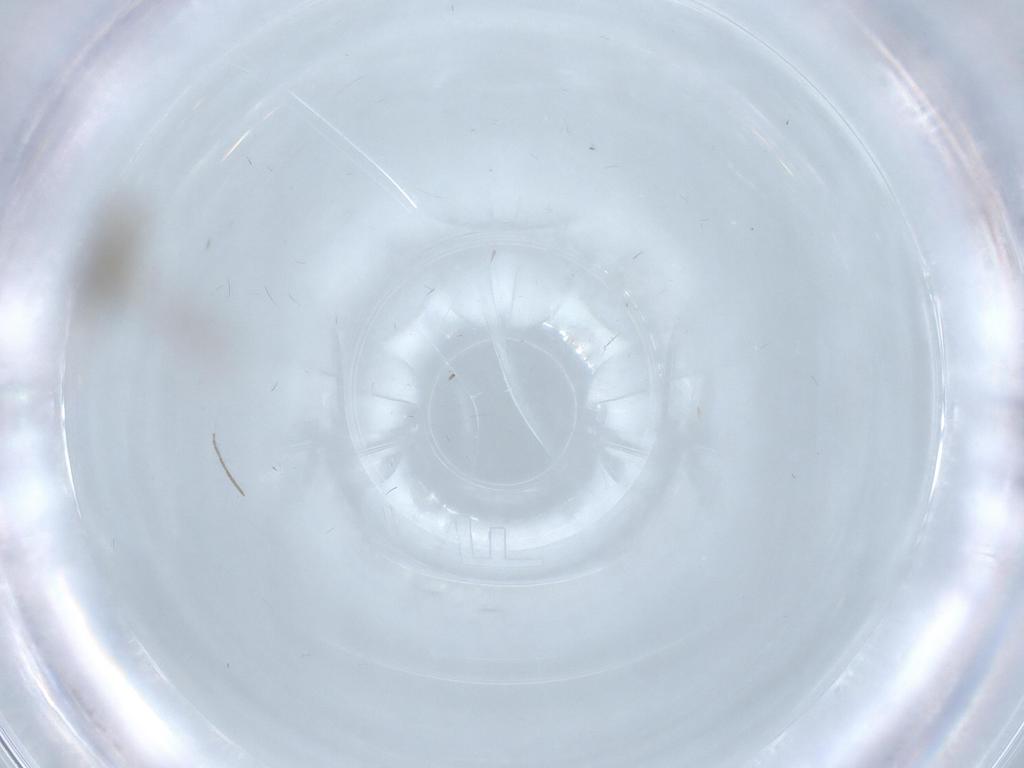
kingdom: Animalia
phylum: Arthropoda
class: Insecta
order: Diptera
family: Cecidomyiidae
